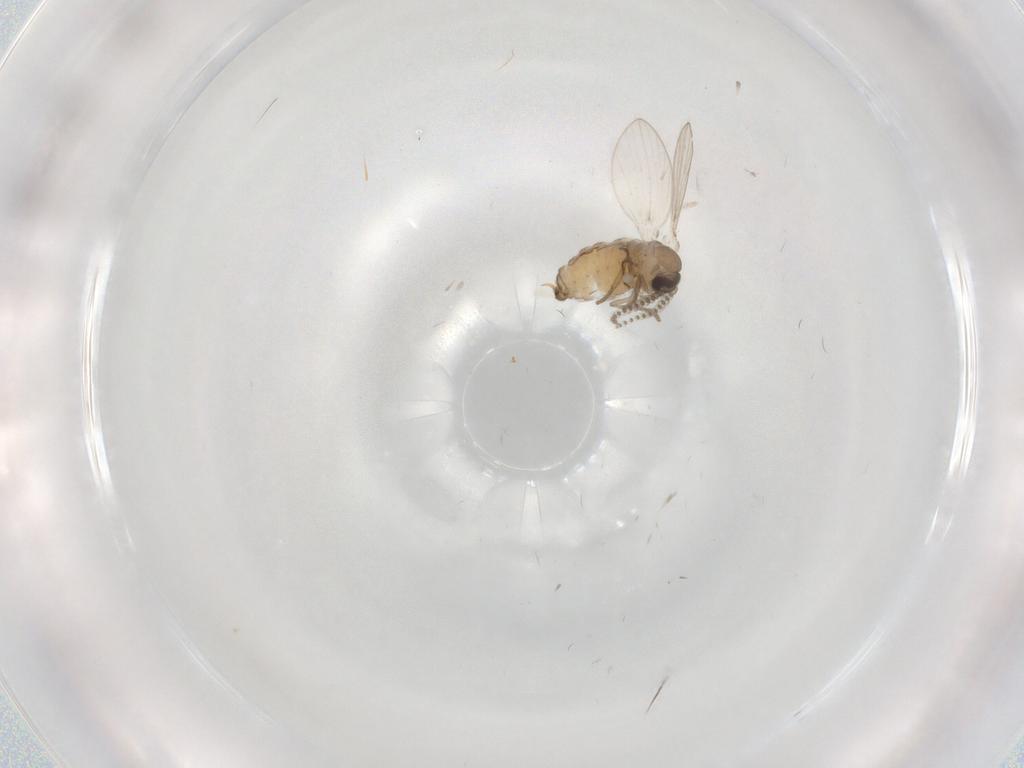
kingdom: Animalia
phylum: Arthropoda
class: Insecta
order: Diptera
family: Psychodidae
